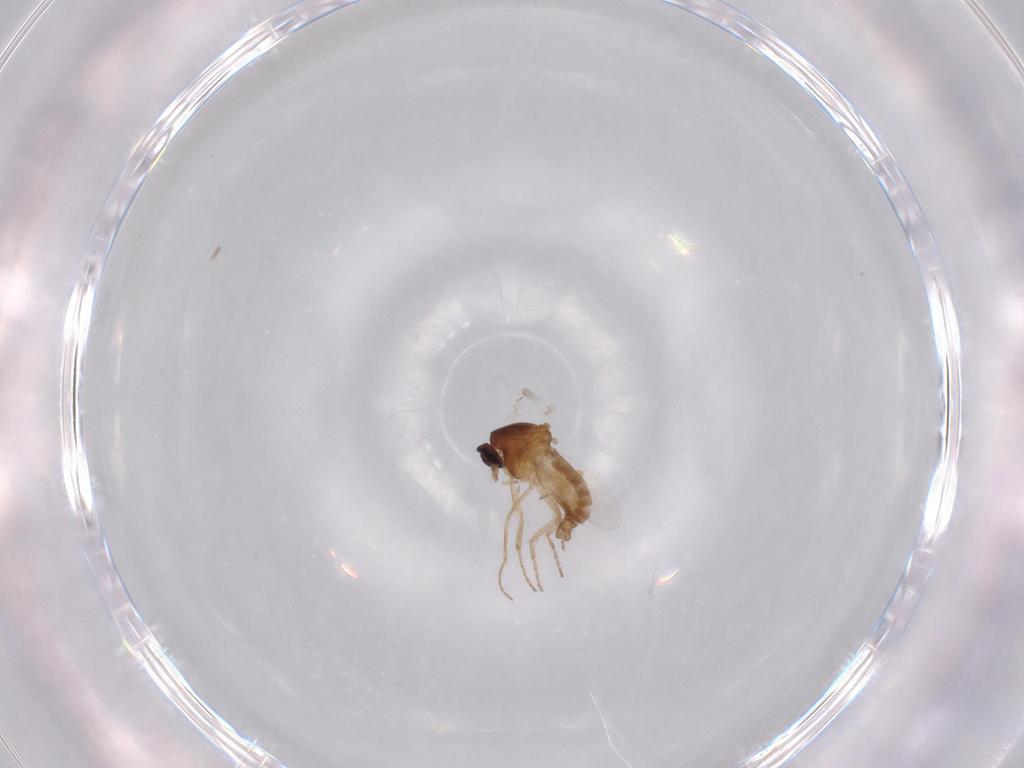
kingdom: Animalia
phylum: Arthropoda
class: Insecta
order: Diptera
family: Ceratopogonidae
